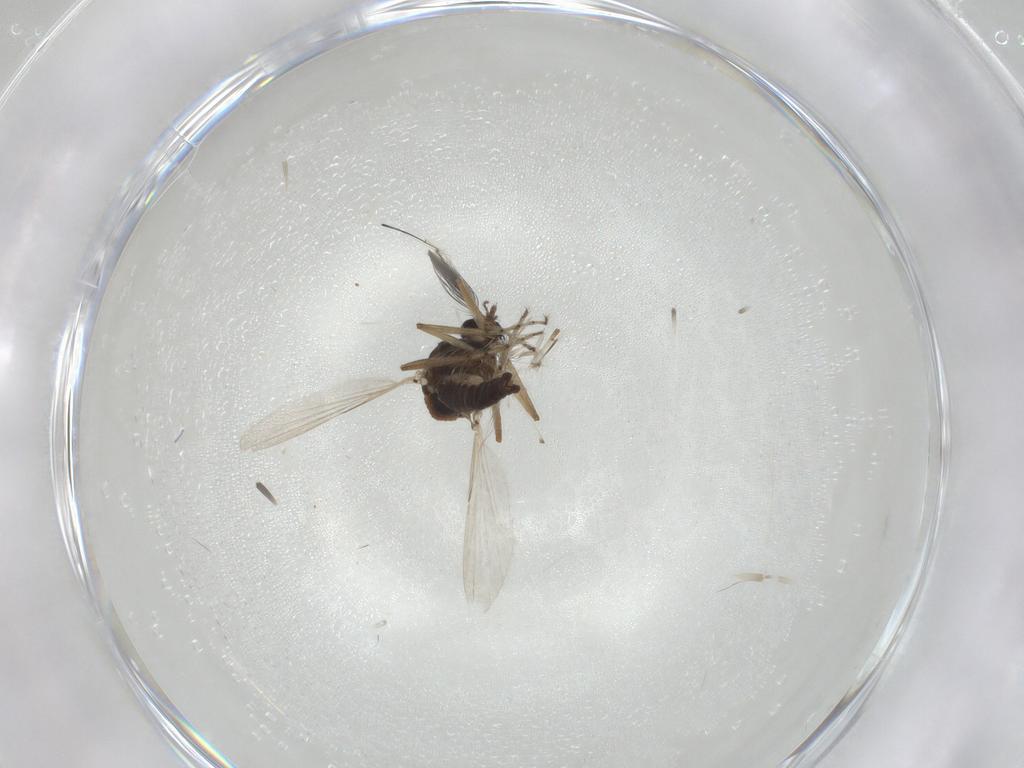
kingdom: Animalia
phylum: Arthropoda
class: Insecta
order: Diptera
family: Ceratopogonidae
